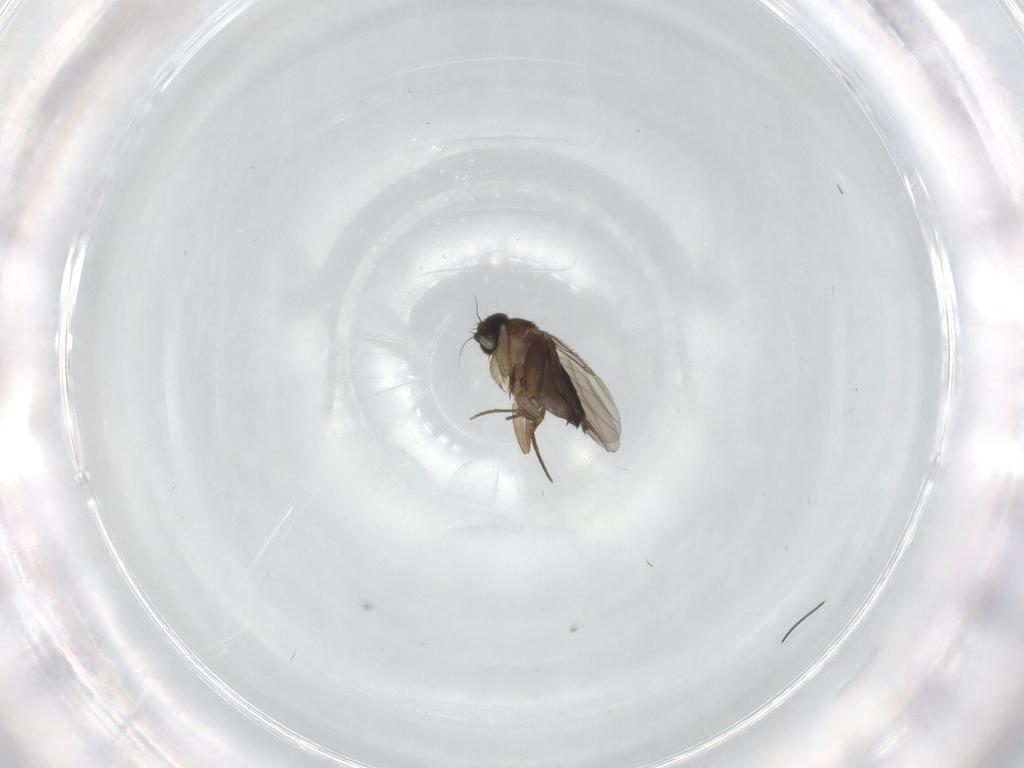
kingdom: Animalia
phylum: Arthropoda
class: Insecta
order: Diptera
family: Phoridae
